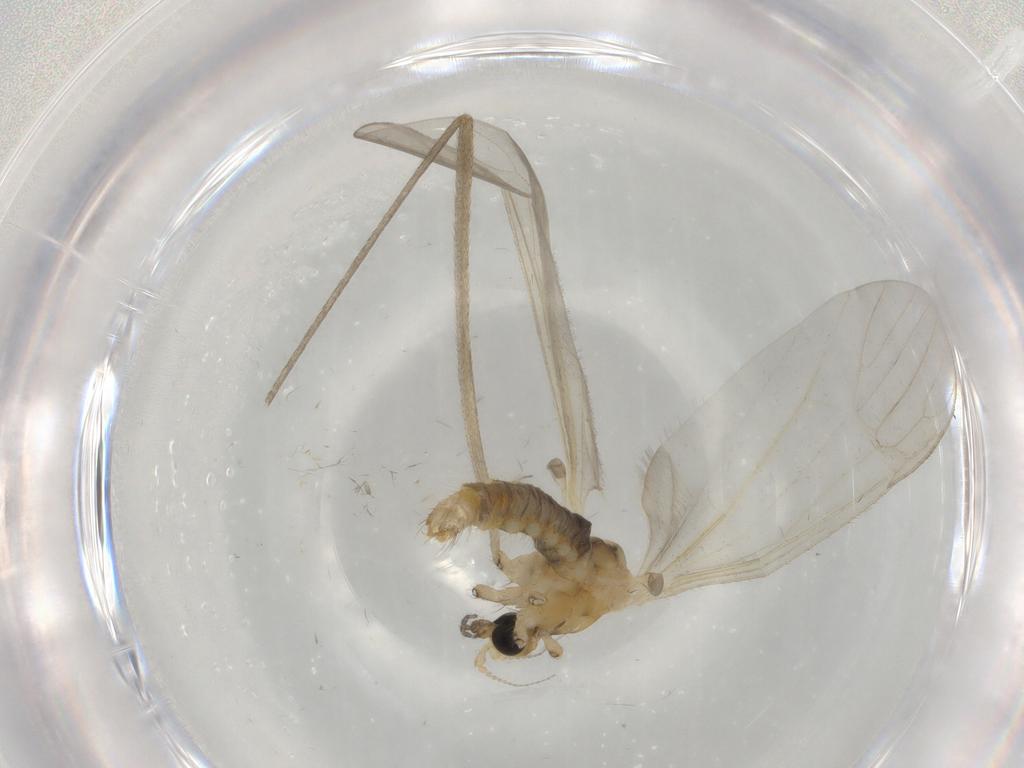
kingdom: Animalia
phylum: Arthropoda
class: Insecta
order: Diptera
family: Phoridae
